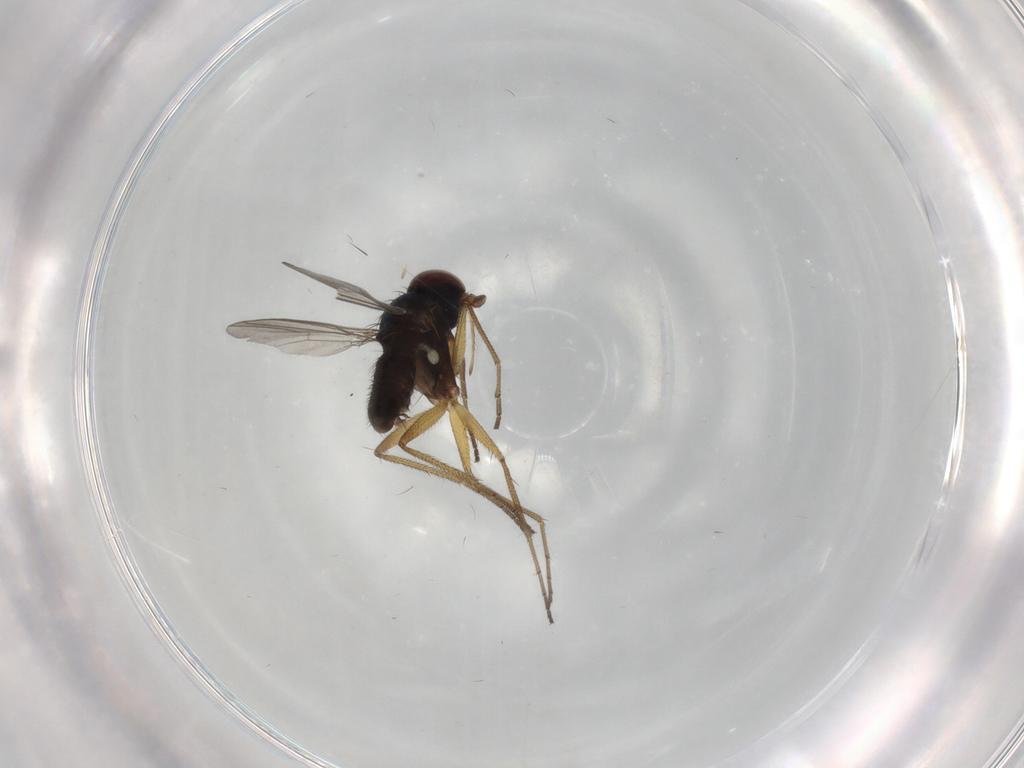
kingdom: Animalia
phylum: Arthropoda
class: Insecta
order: Diptera
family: Dolichopodidae
